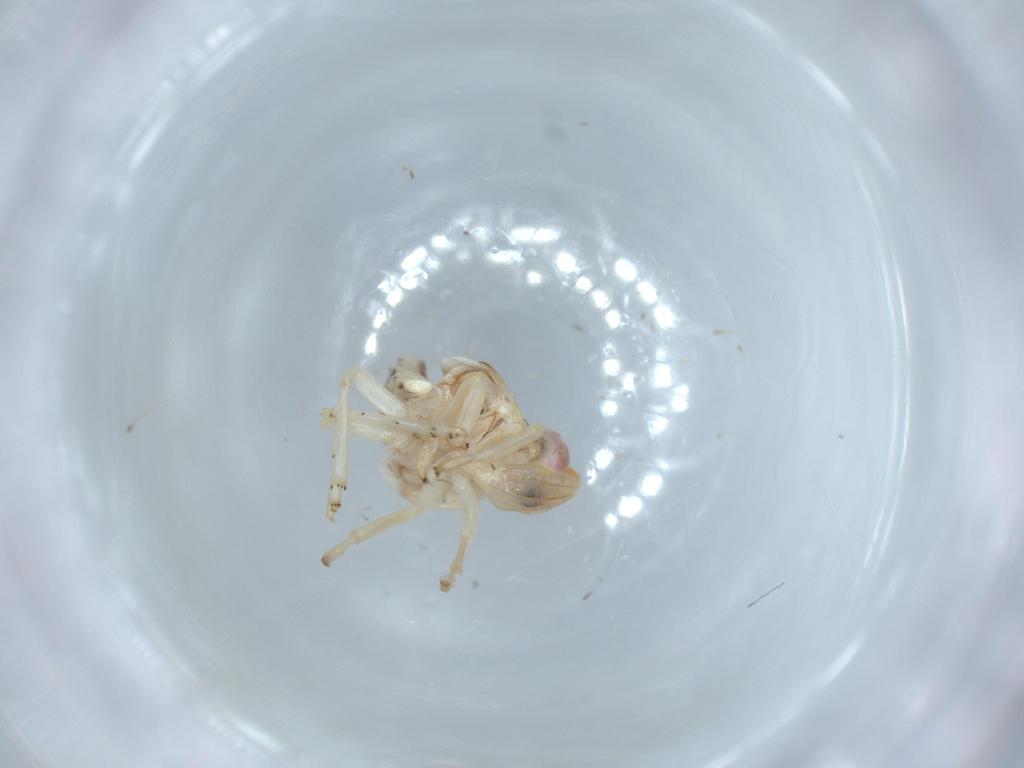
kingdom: Animalia
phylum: Arthropoda
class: Insecta
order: Hemiptera
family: Nogodinidae
